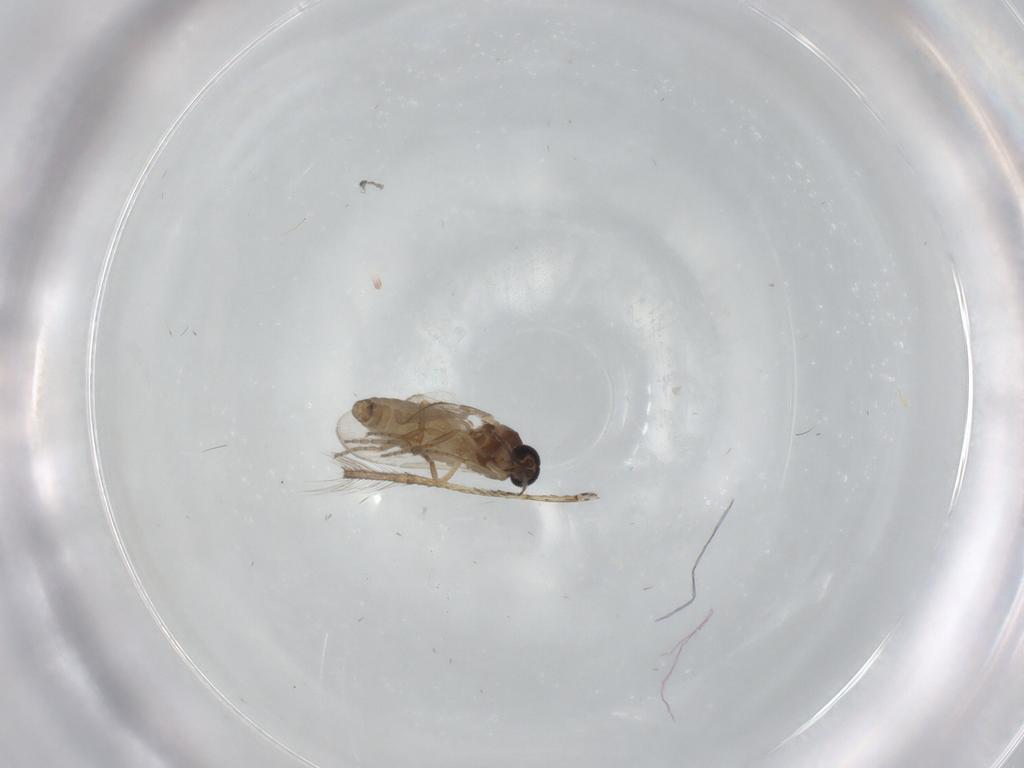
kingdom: Animalia
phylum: Arthropoda
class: Insecta
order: Diptera
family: Culicidae
